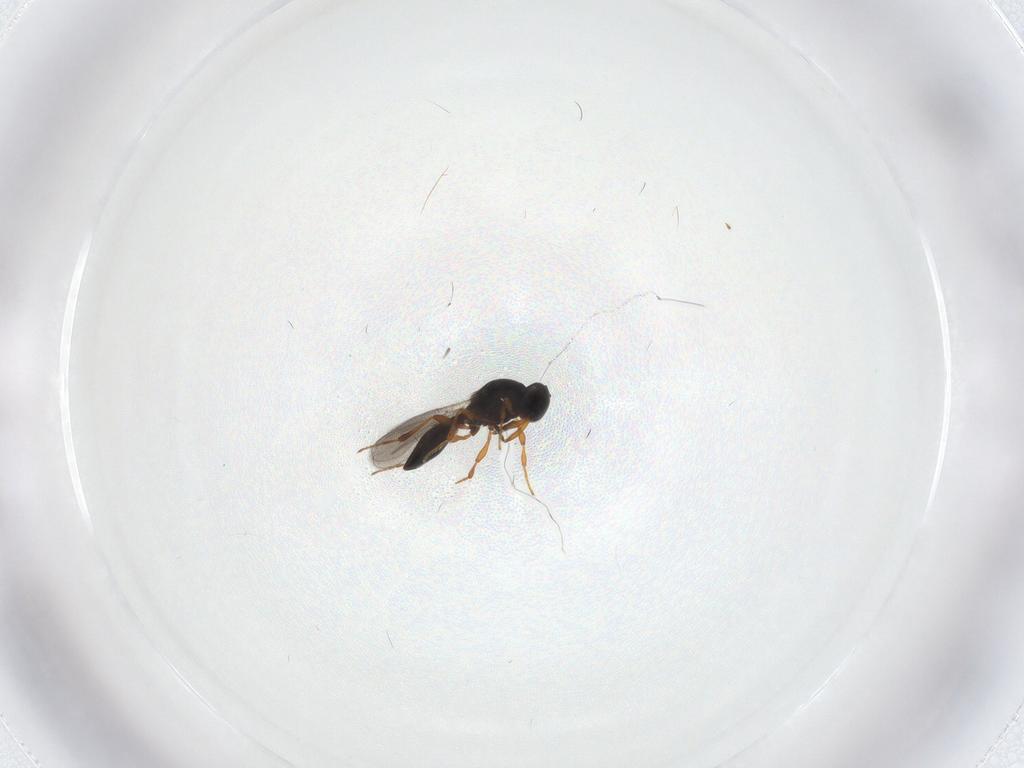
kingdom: Animalia
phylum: Arthropoda
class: Insecta
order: Hymenoptera
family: Platygastridae
